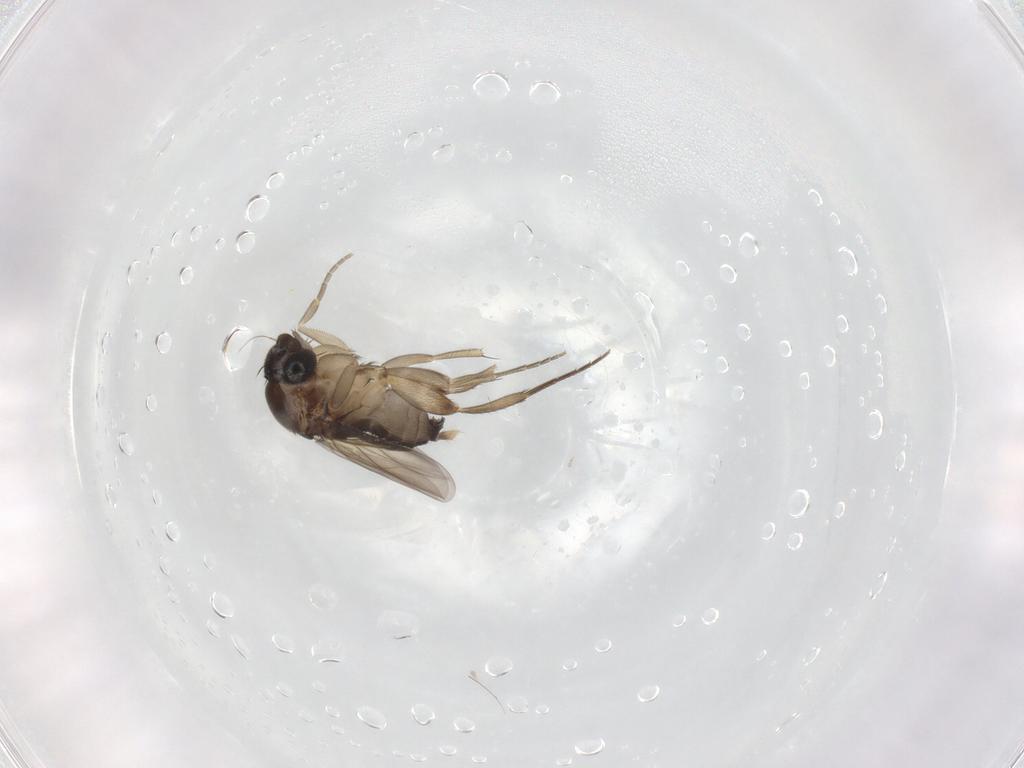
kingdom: Animalia
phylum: Arthropoda
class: Insecta
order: Diptera
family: Phoridae
